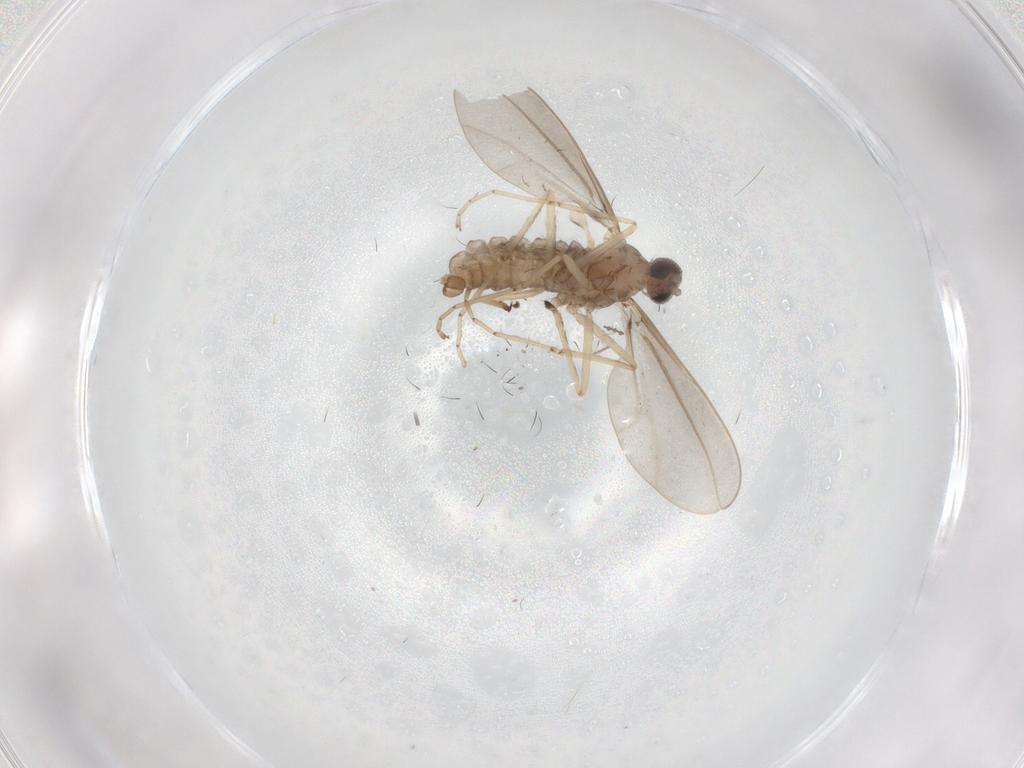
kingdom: Animalia
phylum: Arthropoda
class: Insecta
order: Diptera
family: Cecidomyiidae
